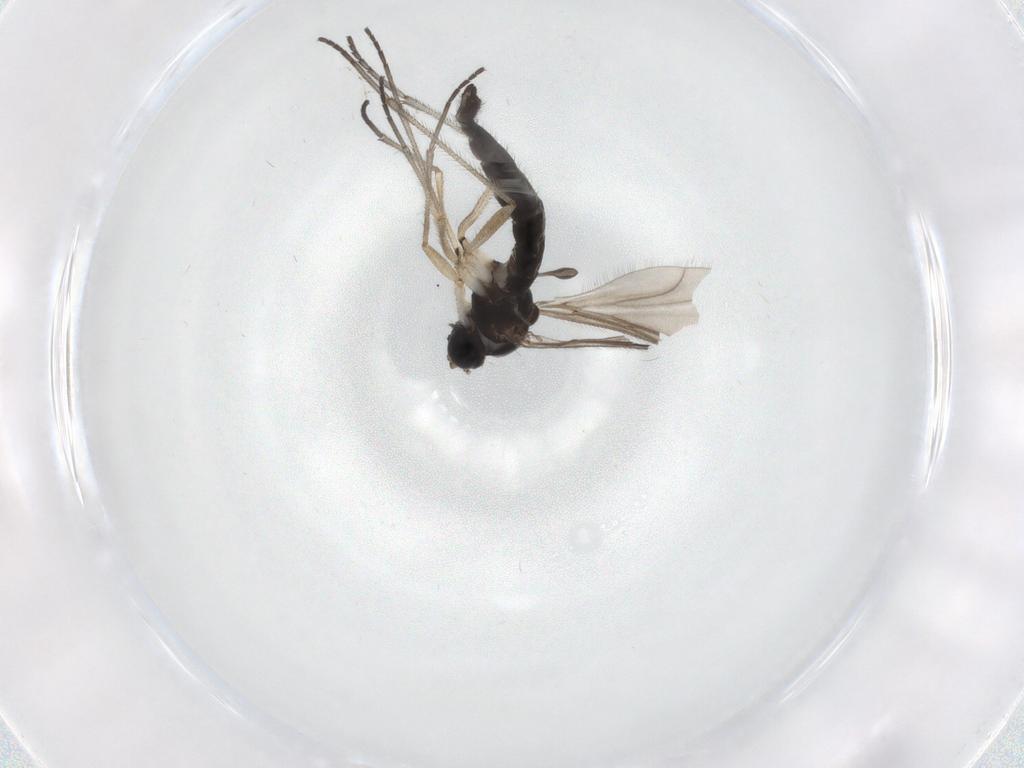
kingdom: Animalia
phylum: Arthropoda
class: Insecta
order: Diptera
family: Sciaridae
